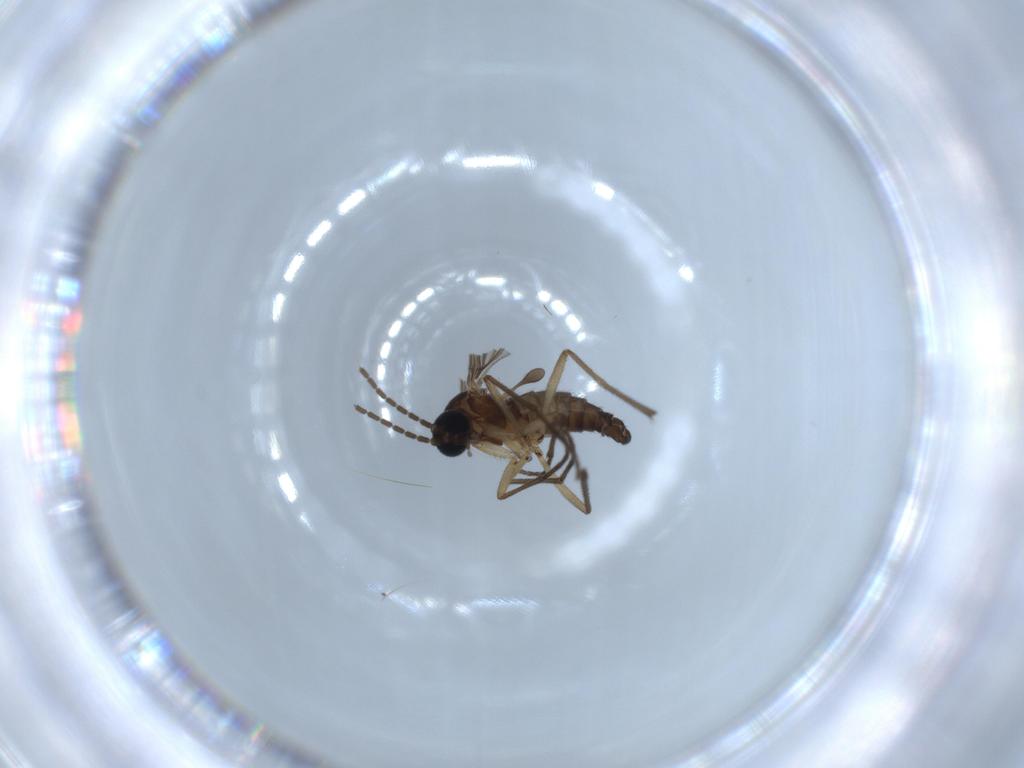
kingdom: Animalia
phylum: Arthropoda
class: Insecta
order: Diptera
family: Sciaridae
